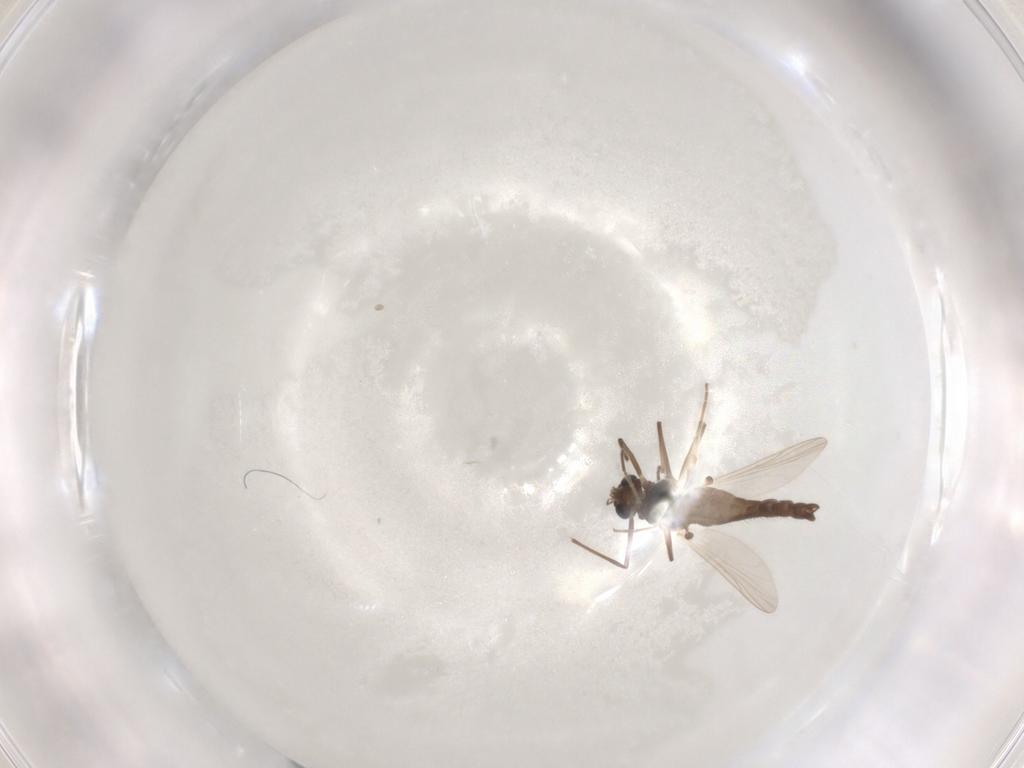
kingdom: Animalia
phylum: Arthropoda
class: Insecta
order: Diptera
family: Chironomidae
